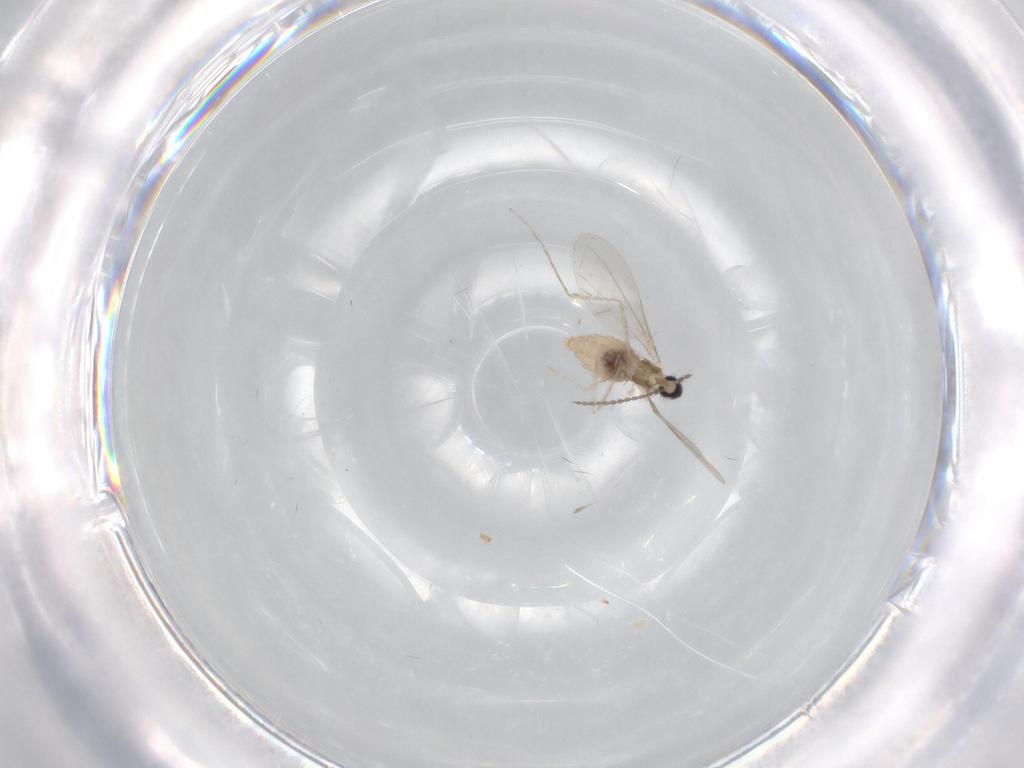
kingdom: Animalia
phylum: Arthropoda
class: Insecta
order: Diptera
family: Cecidomyiidae
